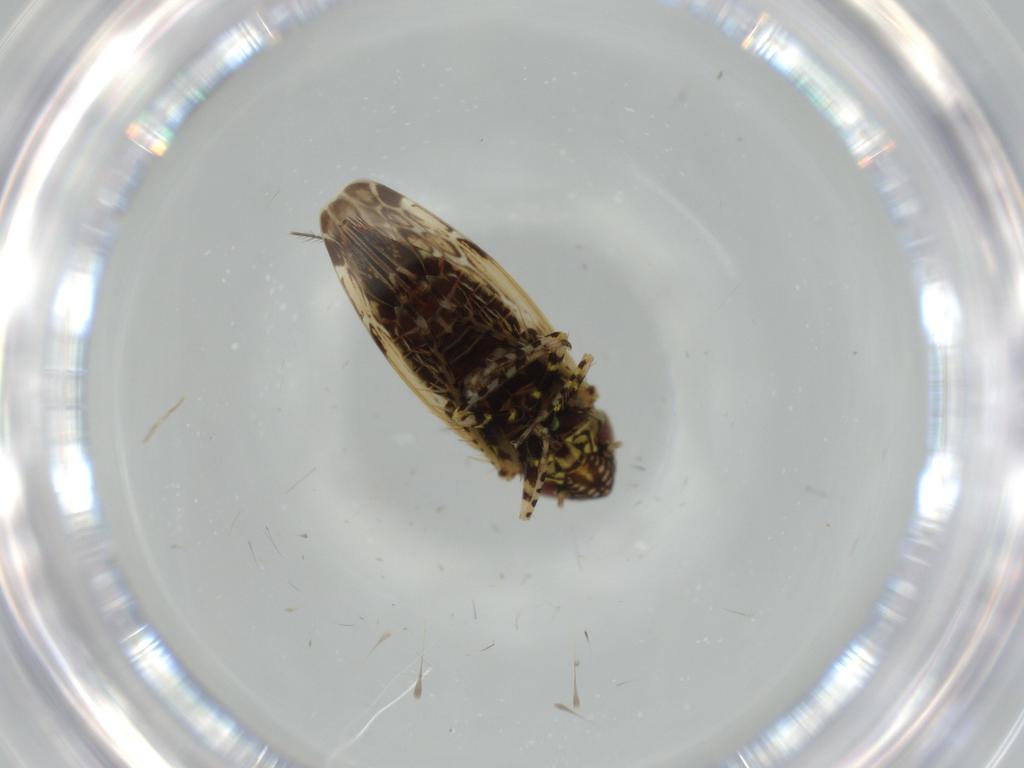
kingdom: Animalia
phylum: Arthropoda
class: Insecta
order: Hemiptera
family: Cicadellidae
